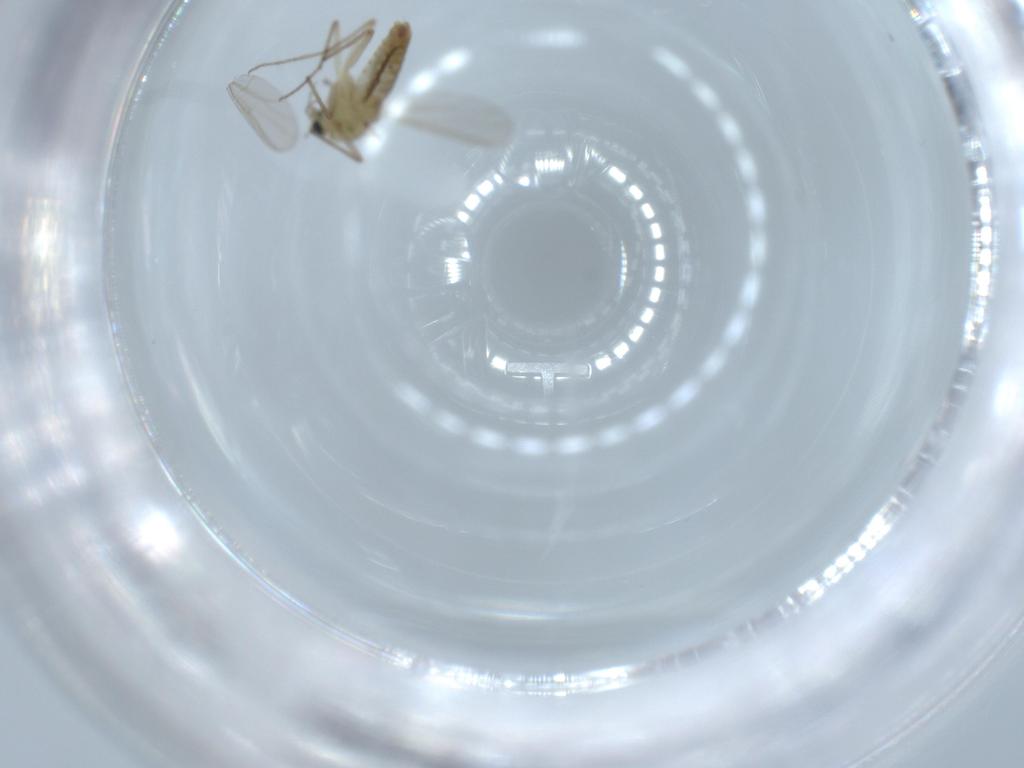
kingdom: Animalia
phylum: Arthropoda
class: Insecta
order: Diptera
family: Chironomidae
